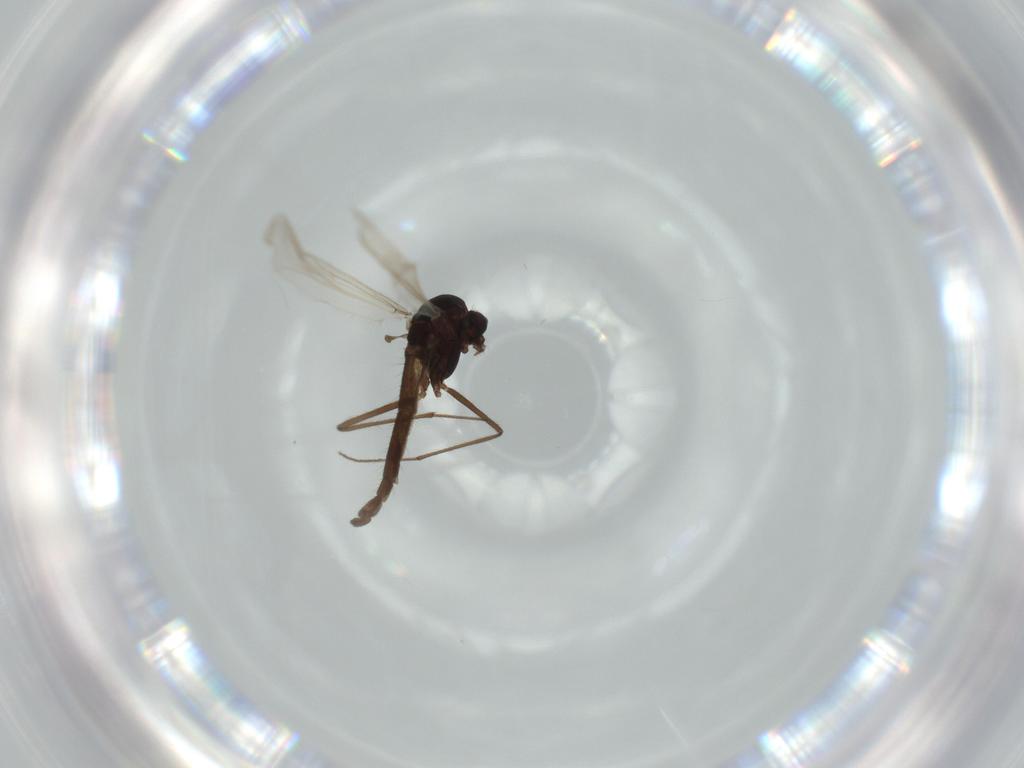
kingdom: Animalia
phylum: Arthropoda
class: Insecta
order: Diptera
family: Chironomidae
